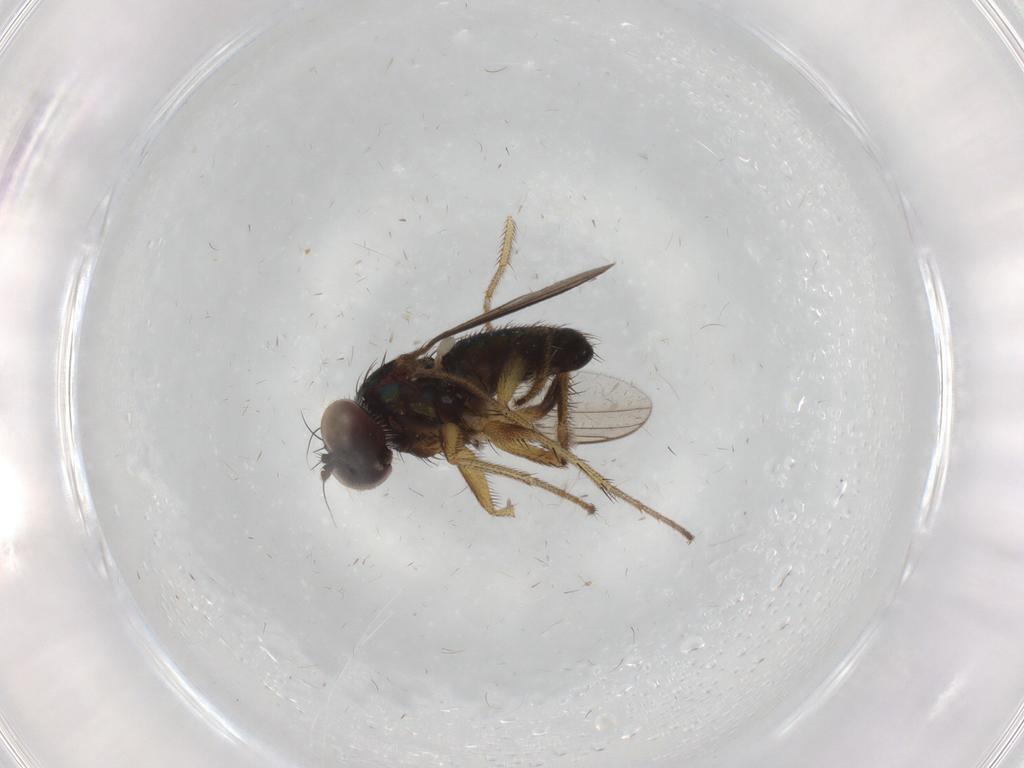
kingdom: Animalia
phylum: Arthropoda
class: Insecta
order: Diptera
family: Dolichopodidae
